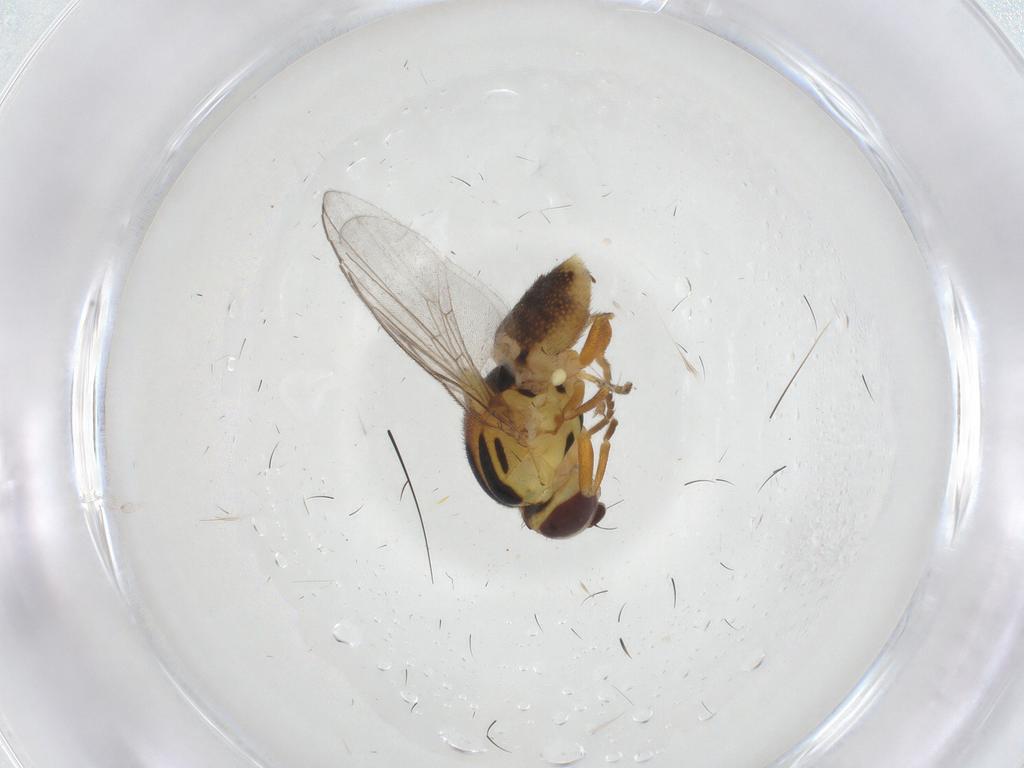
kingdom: Animalia
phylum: Arthropoda
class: Insecta
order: Diptera
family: Chloropidae
